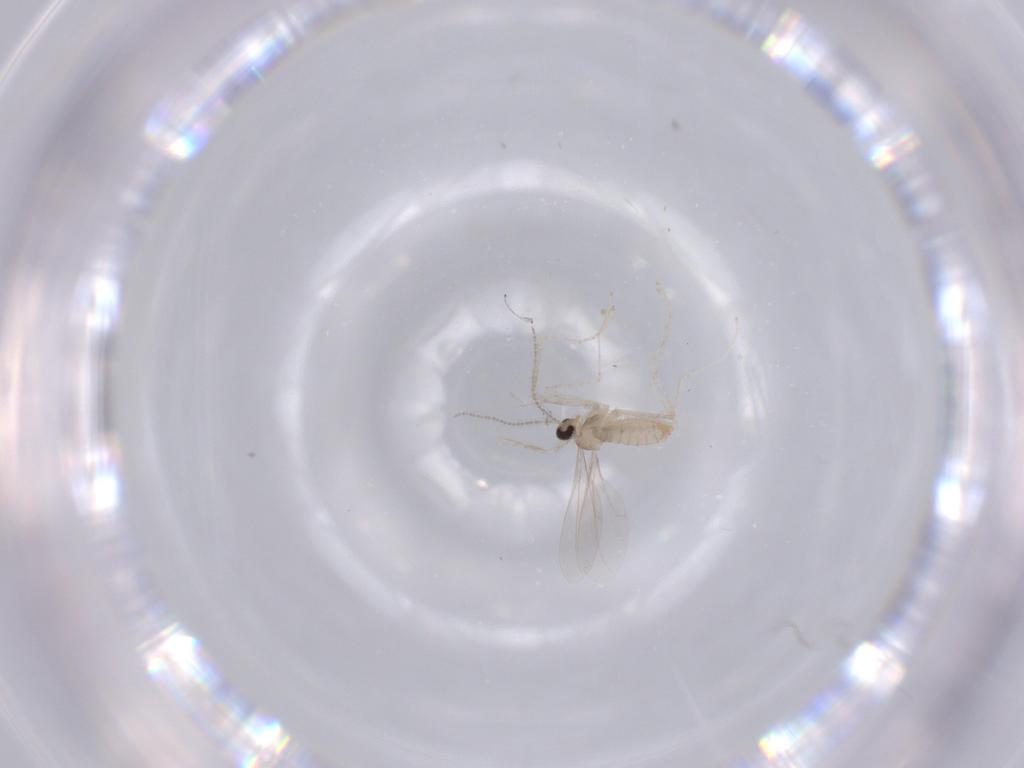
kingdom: Animalia
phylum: Arthropoda
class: Insecta
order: Diptera
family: Cecidomyiidae
